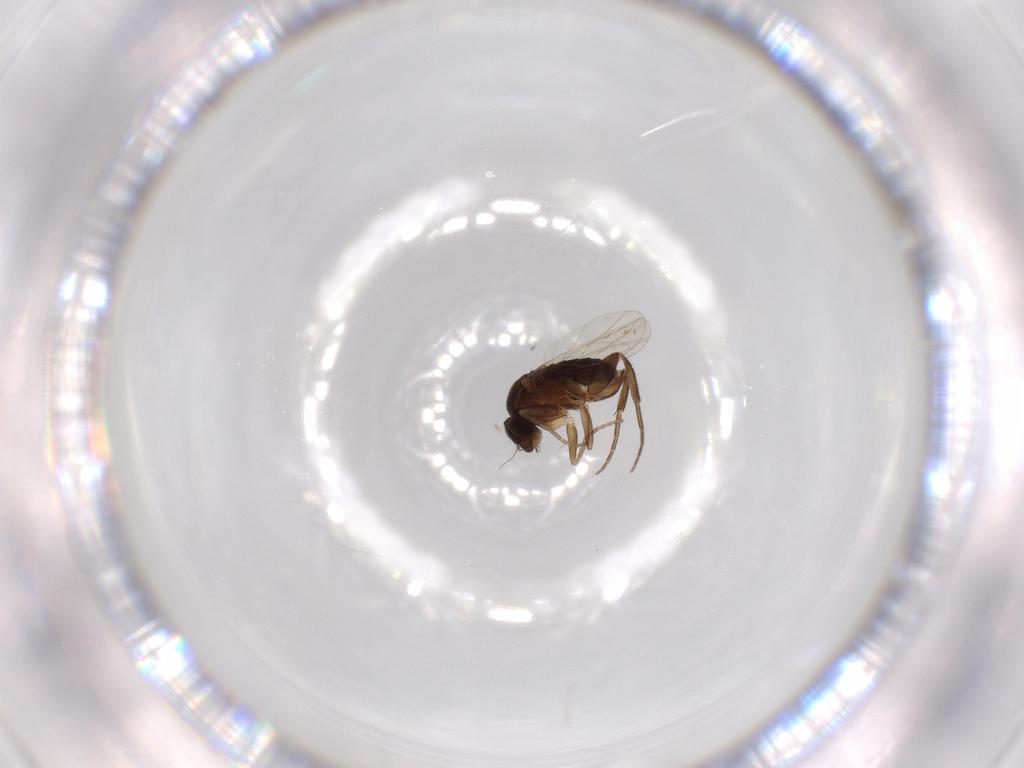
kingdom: Animalia
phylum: Arthropoda
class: Insecta
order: Diptera
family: Phoridae
